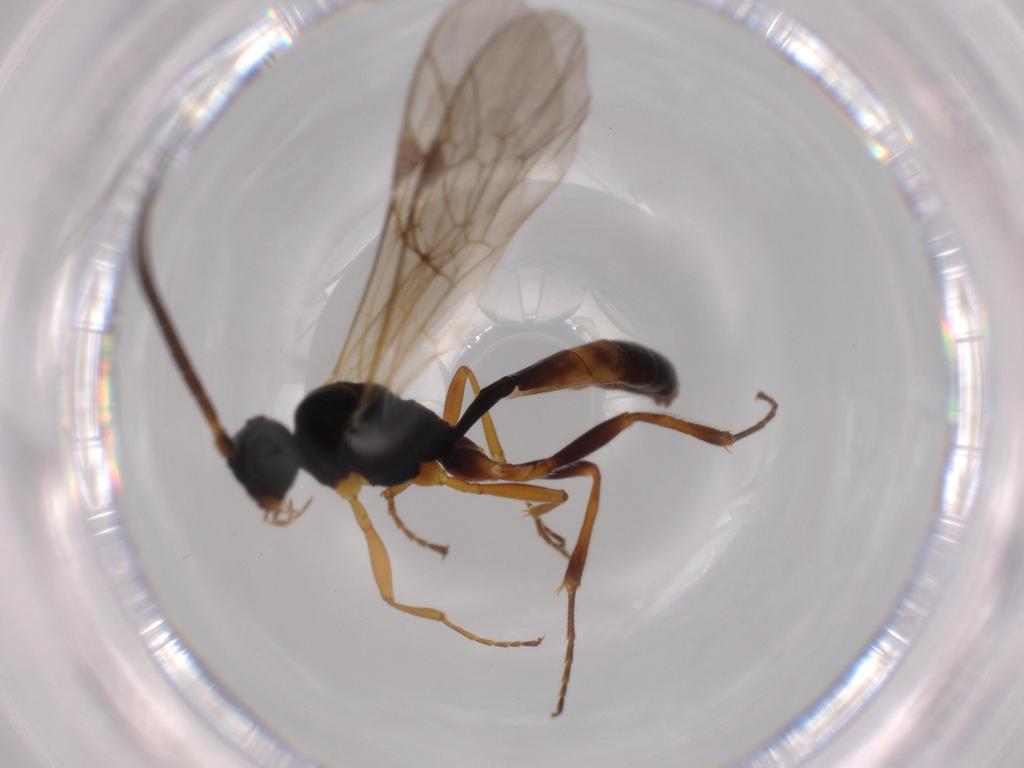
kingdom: Animalia
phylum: Arthropoda
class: Insecta
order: Hymenoptera
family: Ichneumonidae
